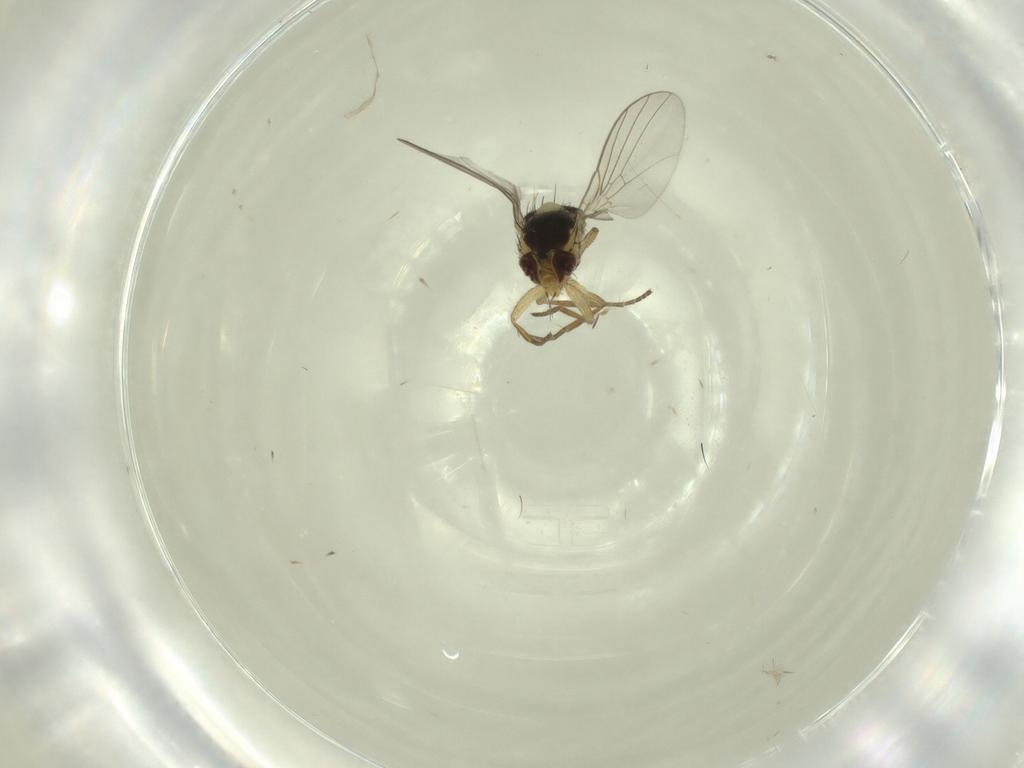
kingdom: Animalia
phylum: Arthropoda
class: Insecta
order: Diptera
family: Agromyzidae
